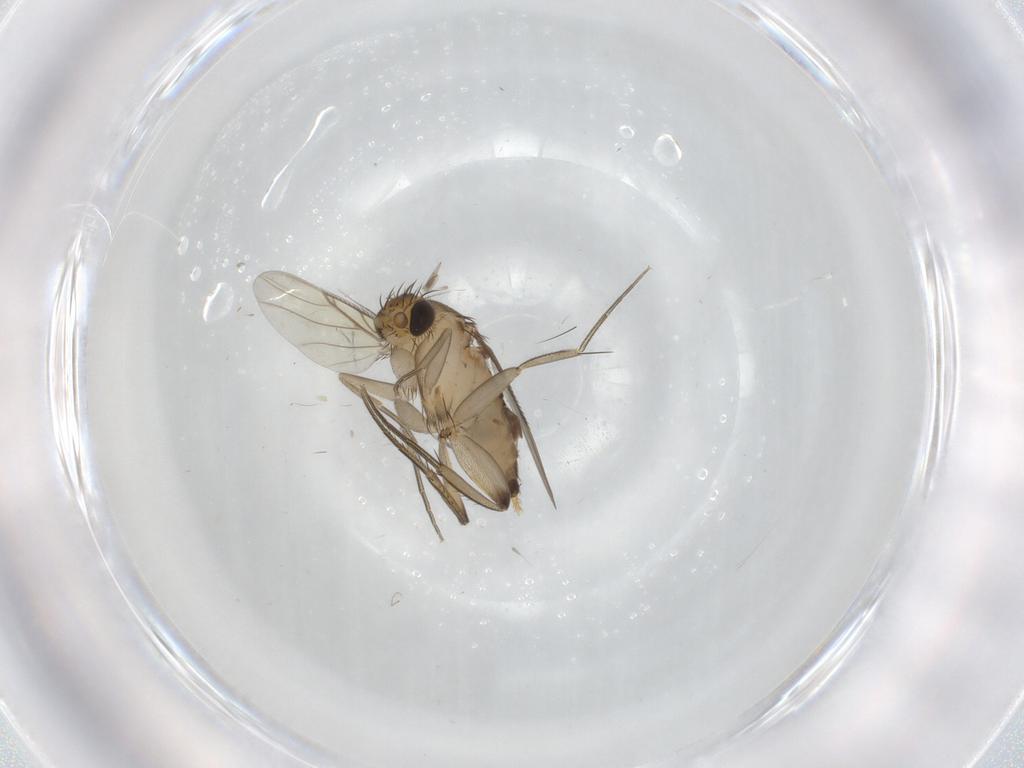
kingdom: Animalia
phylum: Arthropoda
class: Insecta
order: Diptera
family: Phoridae
